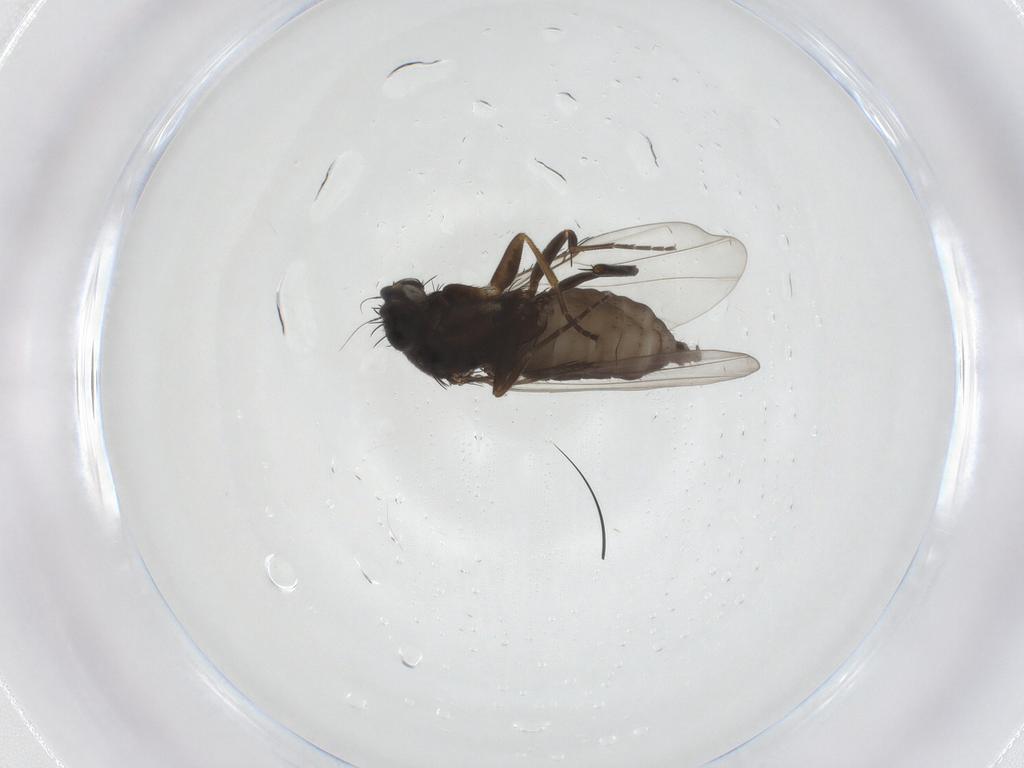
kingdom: Animalia
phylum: Arthropoda
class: Insecta
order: Diptera
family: Phoridae
